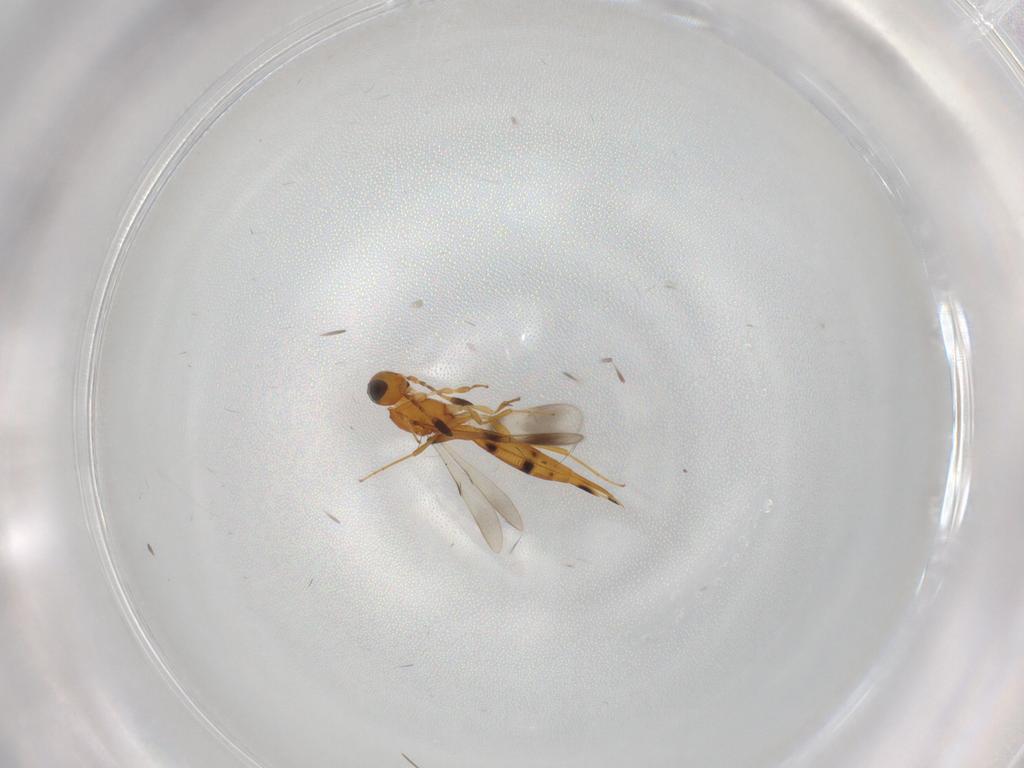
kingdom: Animalia
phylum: Arthropoda
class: Insecta
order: Hymenoptera
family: Scelionidae
